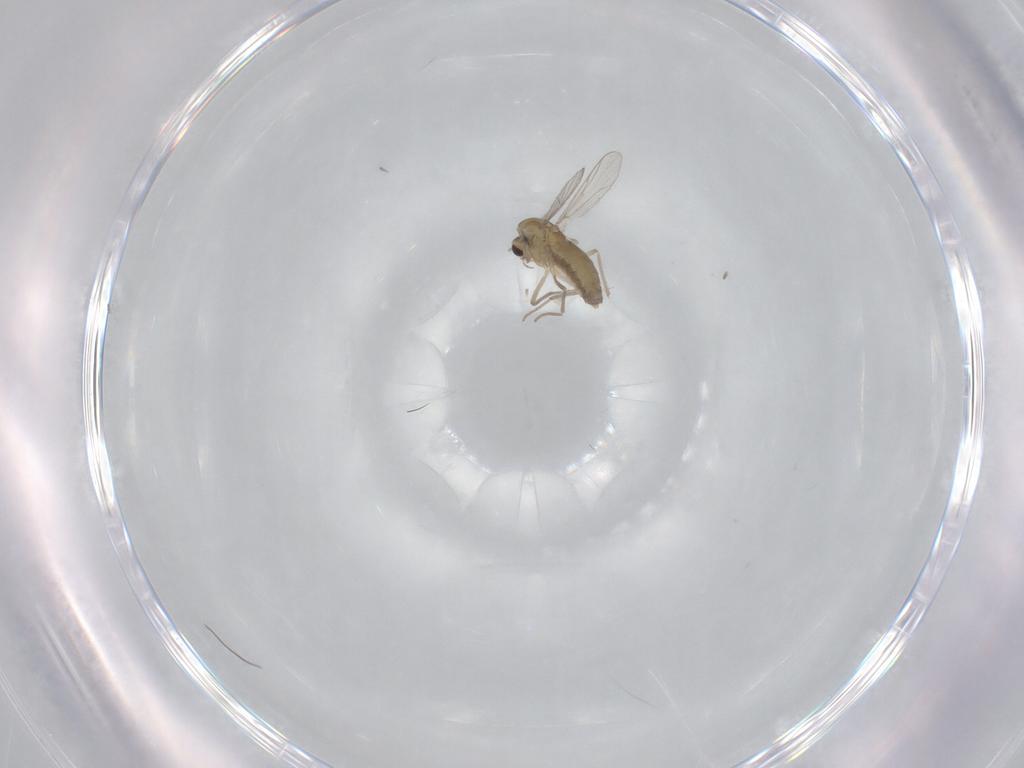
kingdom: Animalia
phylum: Arthropoda
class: Insecta
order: Diptera
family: Chironomidae
